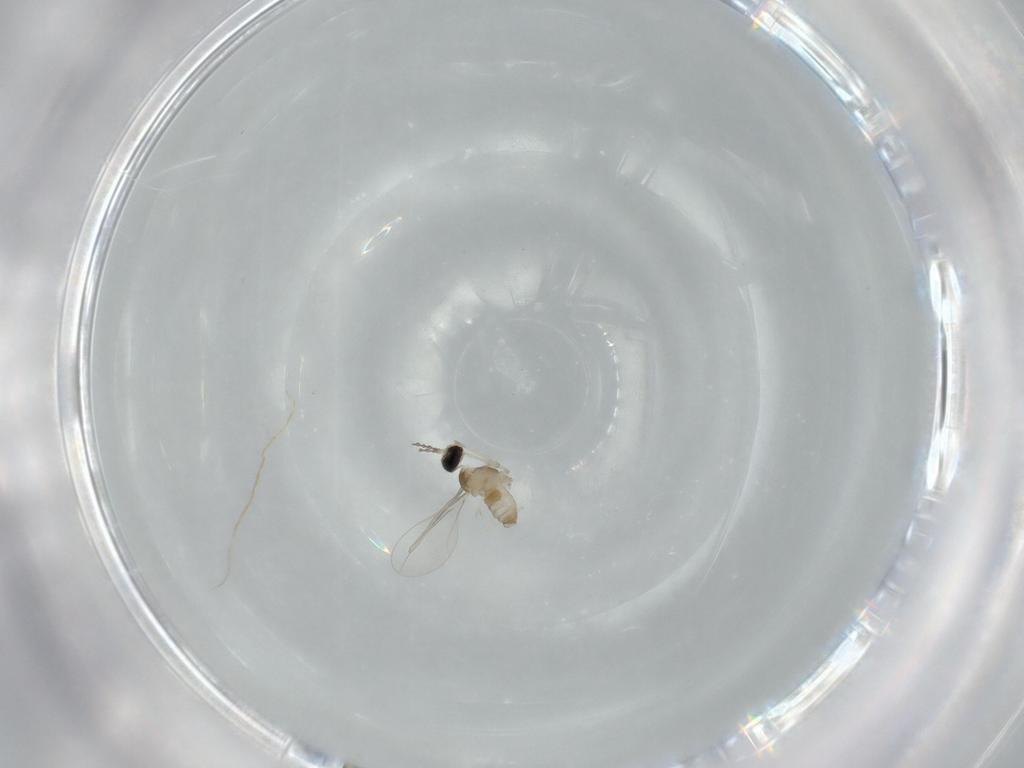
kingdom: Animalia
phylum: Arthropoda
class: Insecta
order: Diptera
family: Cecidomyiidae
